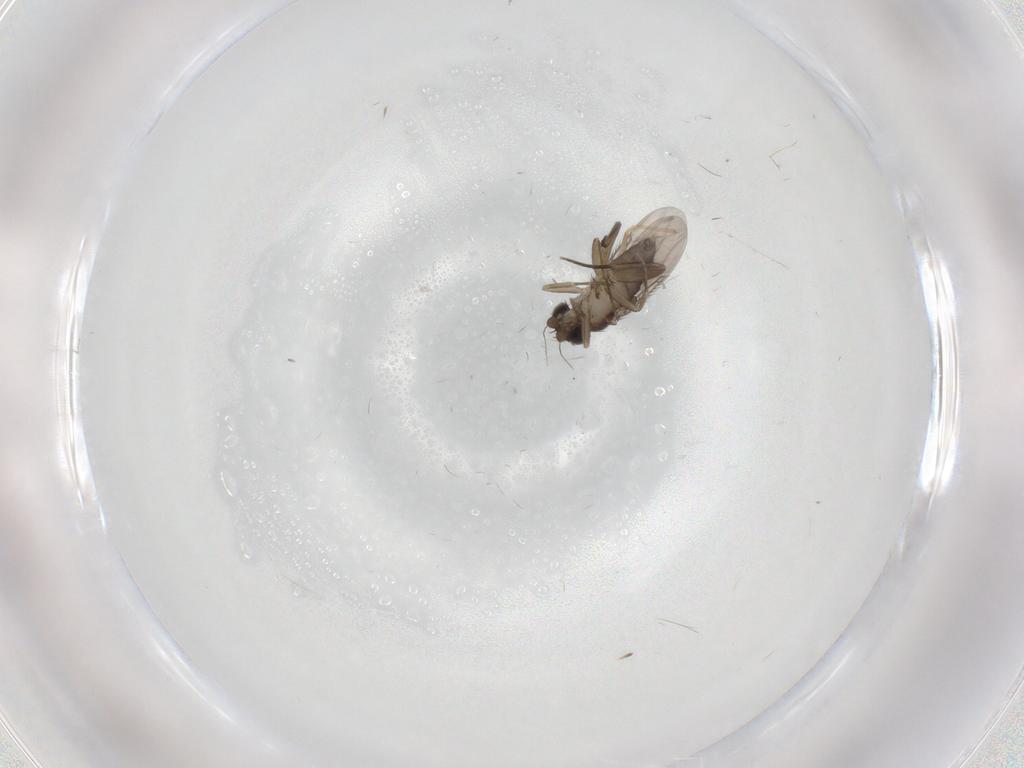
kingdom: Animalia
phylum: Arthropoda
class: Insecta
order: Diptera
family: Phoridae
